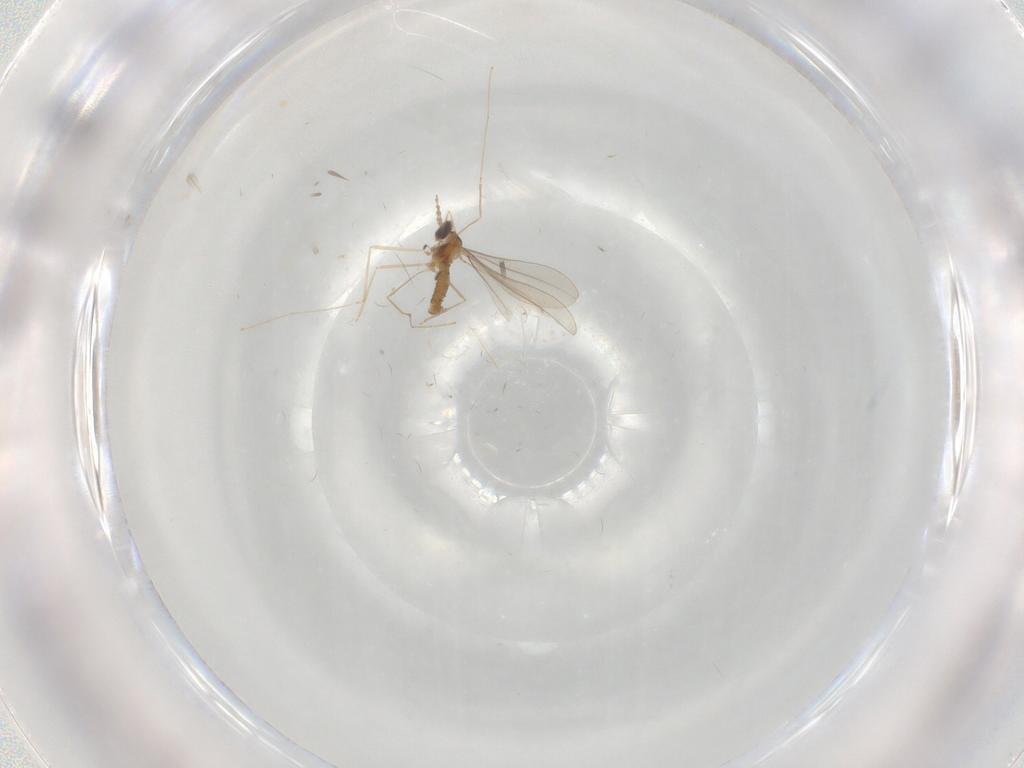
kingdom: Animalia
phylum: Arthropoda
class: Insecta
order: Diptera
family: Cecidomyiidae
